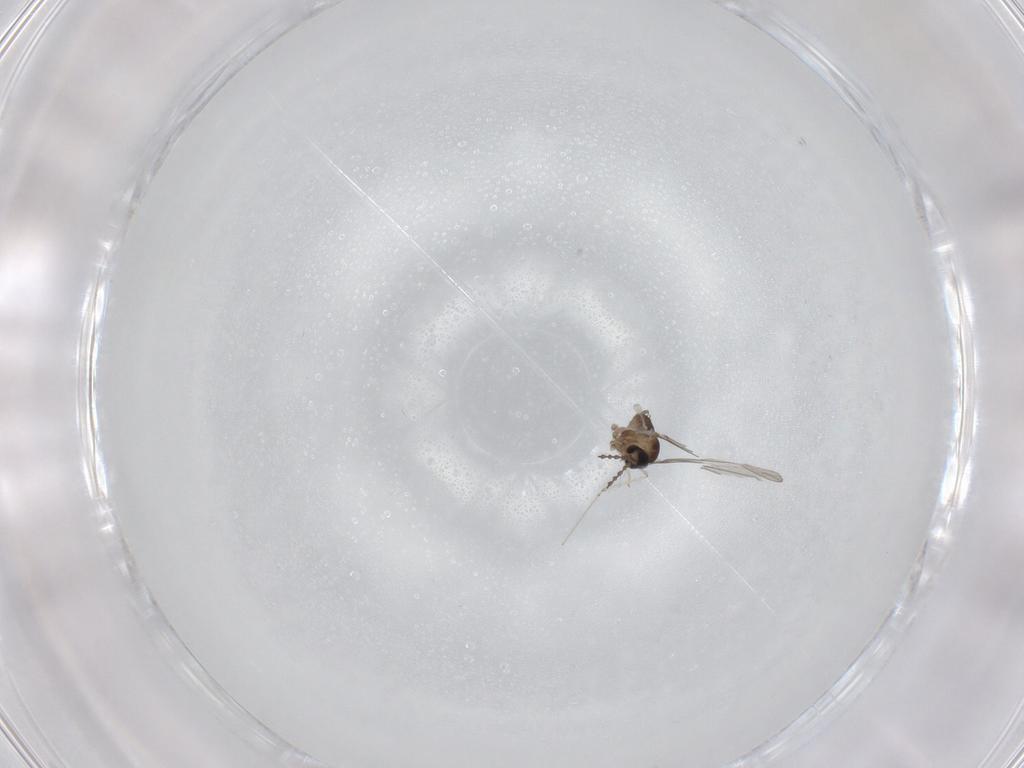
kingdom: Animalia
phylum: Arthropoda
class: Insecta
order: Diptera
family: Cecidomyiidae
